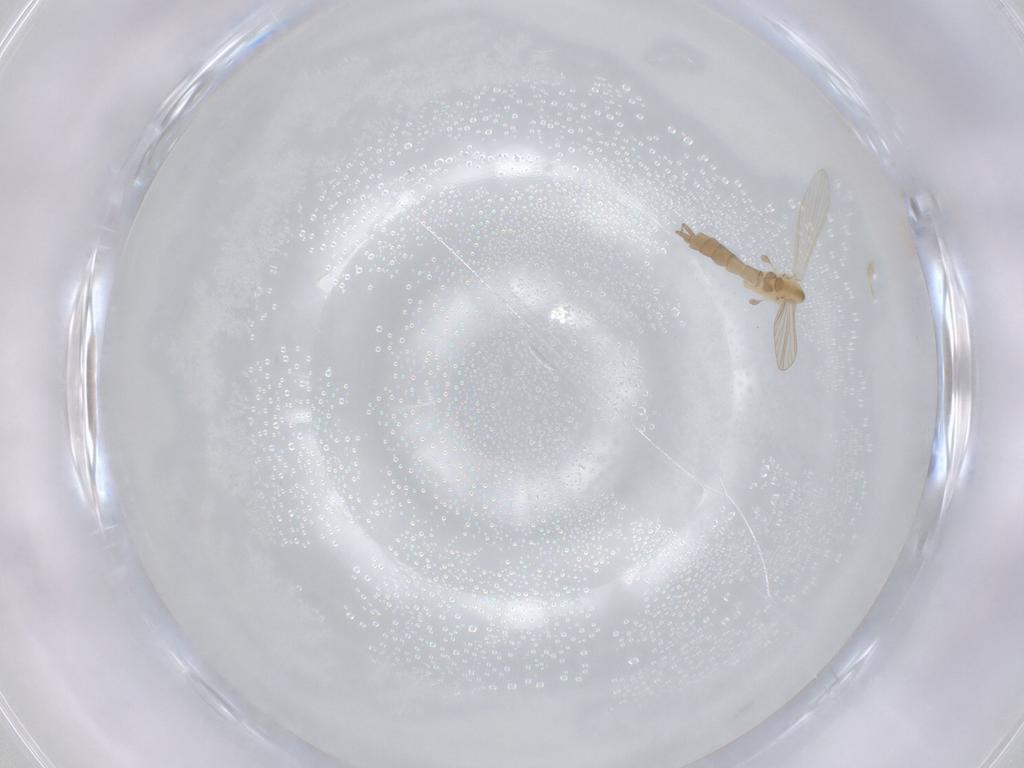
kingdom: Animalia
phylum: Arthropoda
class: Insecta
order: Diptera
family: Psychodidae
